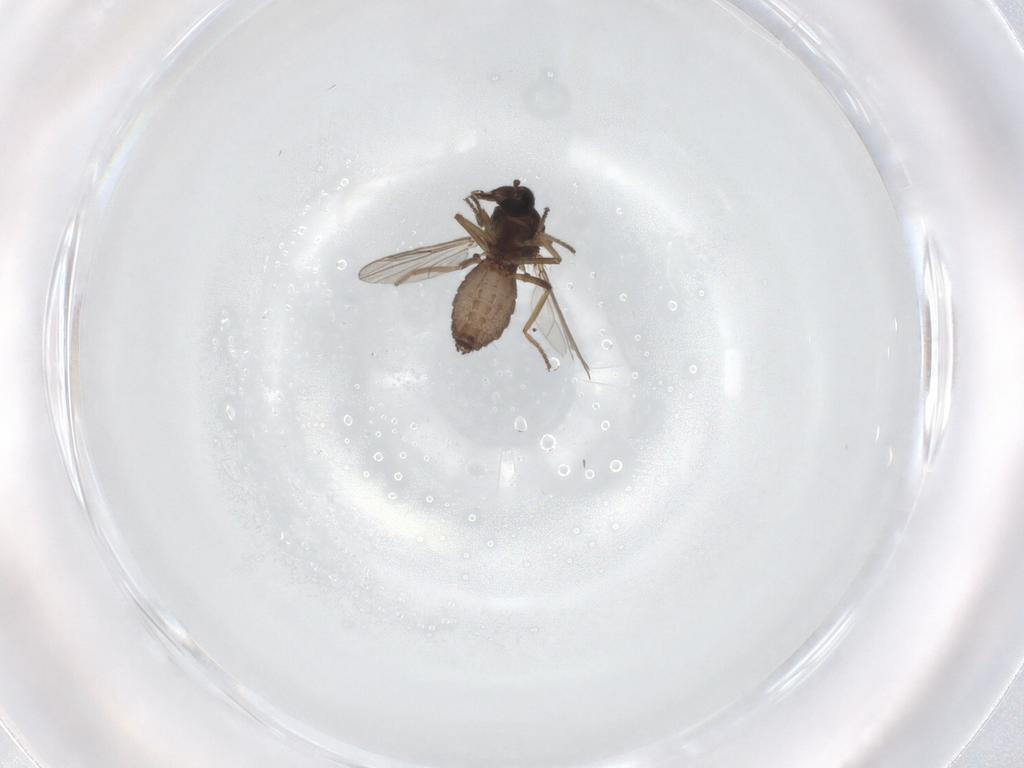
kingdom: Animalia
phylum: Arthropoda
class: Insecta
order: Diptera
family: Ceratopogonidae
